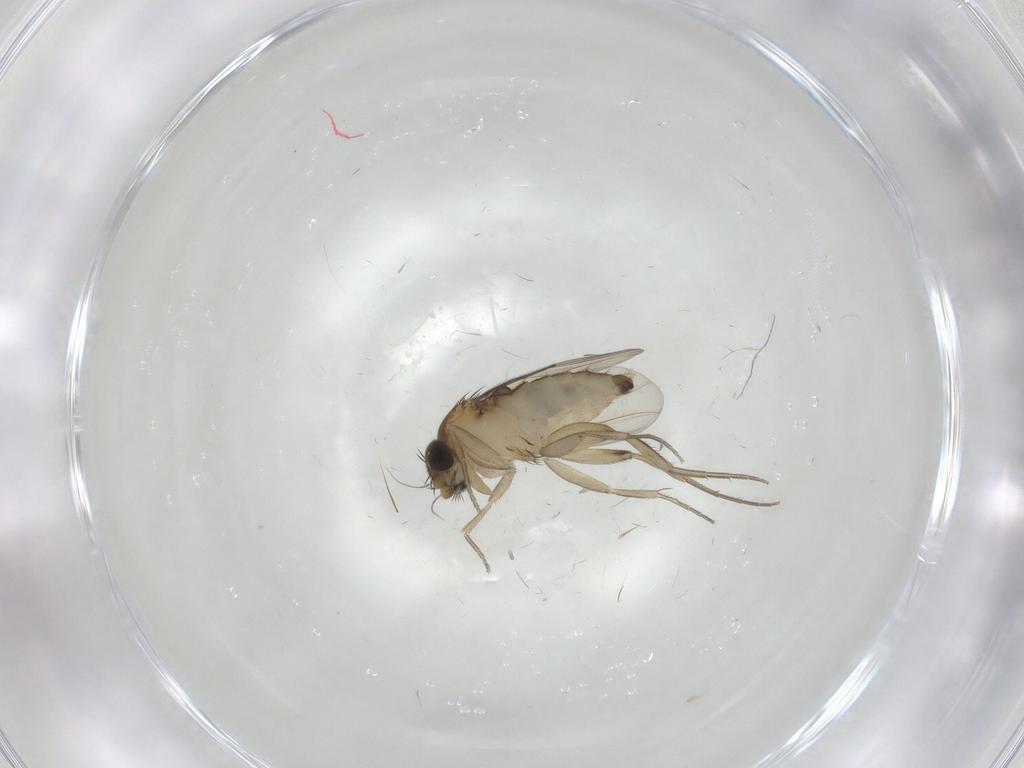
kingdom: Animalia
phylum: Arthropoda
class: Insecta
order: Diptera
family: Phoridae
